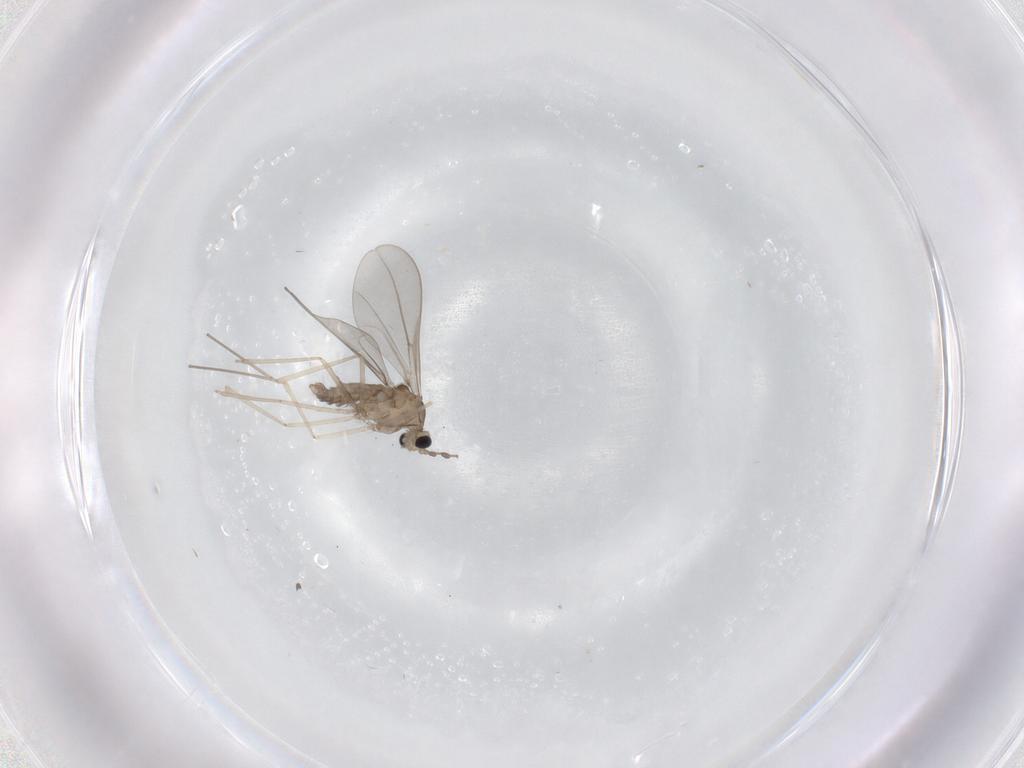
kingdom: Animalia
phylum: Arthropoda
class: Insecta
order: Diptera
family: Cecidomyiidae
